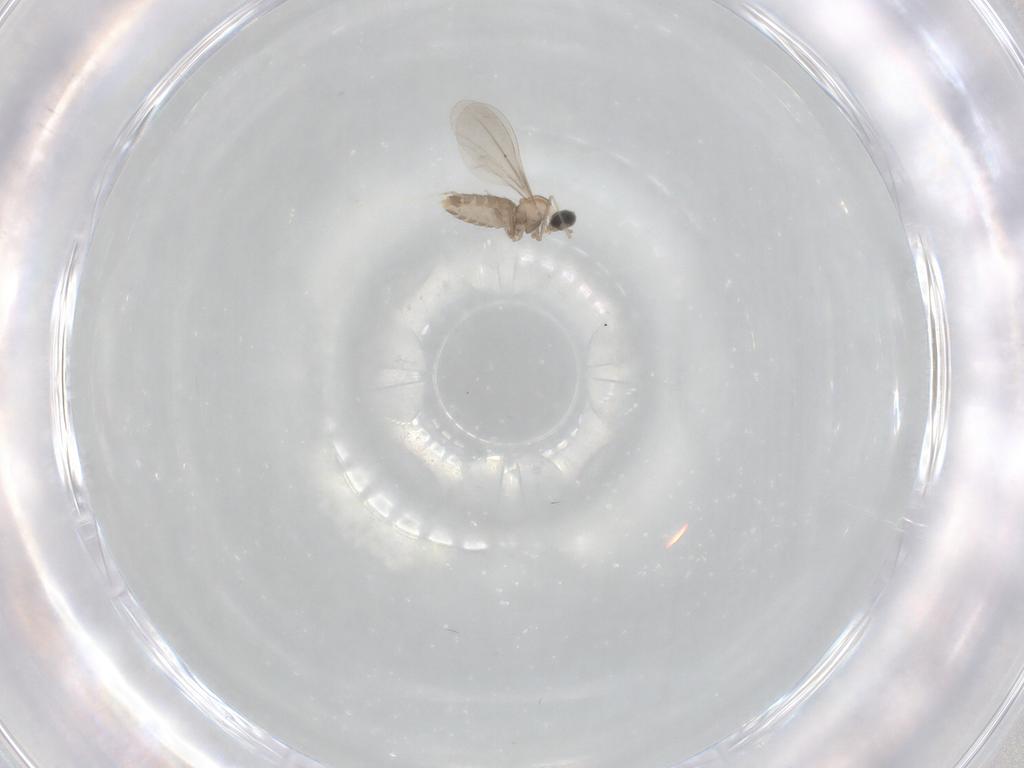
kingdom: Animalia
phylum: Arthropoda
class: Insecta
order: Diptera
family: Cecidomyiidae
